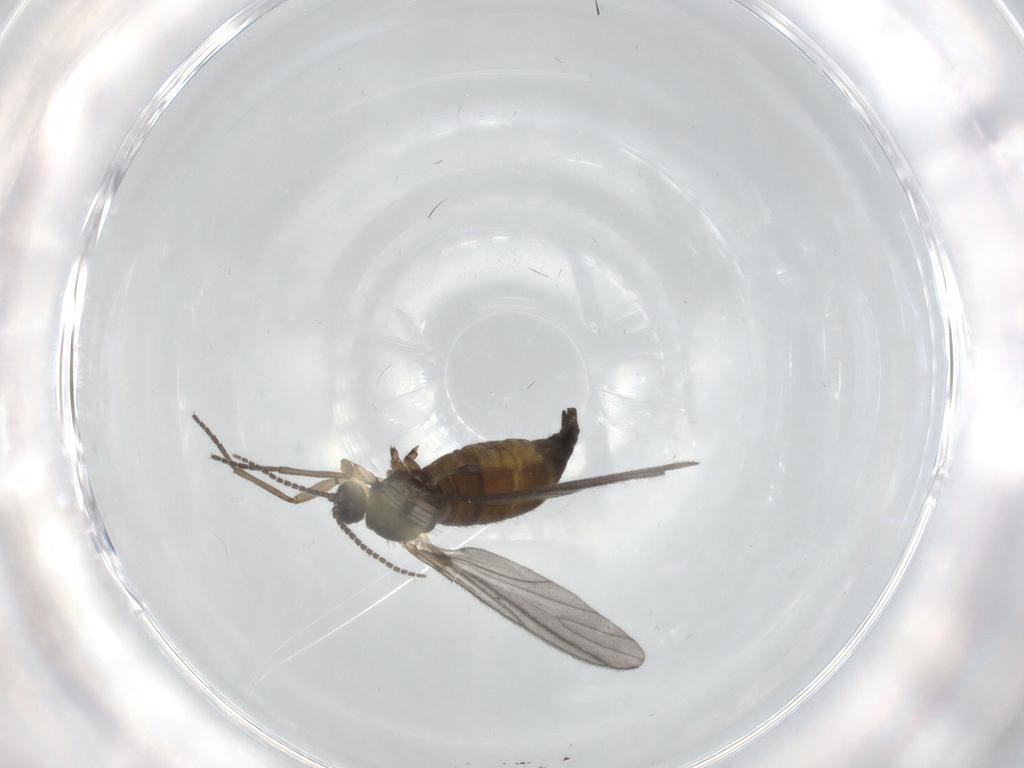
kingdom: Animalia
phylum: Arthropoda
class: Insecta
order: Diptera
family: Sciaridae
